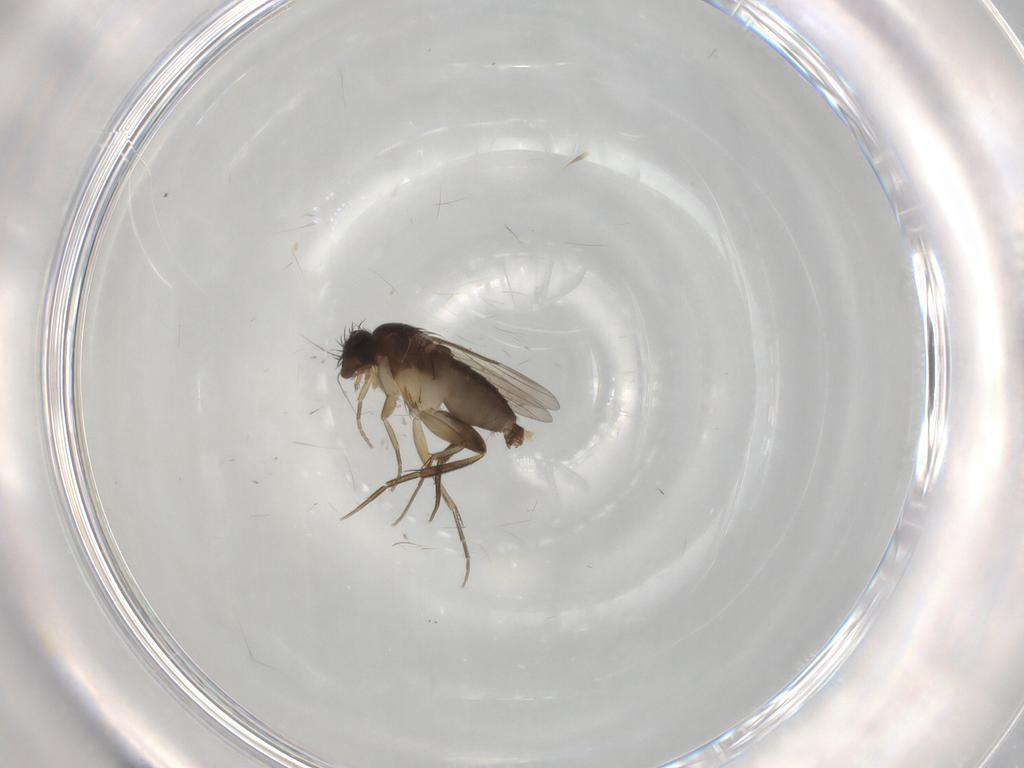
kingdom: Animalia
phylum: Arthropoda
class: Insecta
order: Diptera
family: Phoridae
